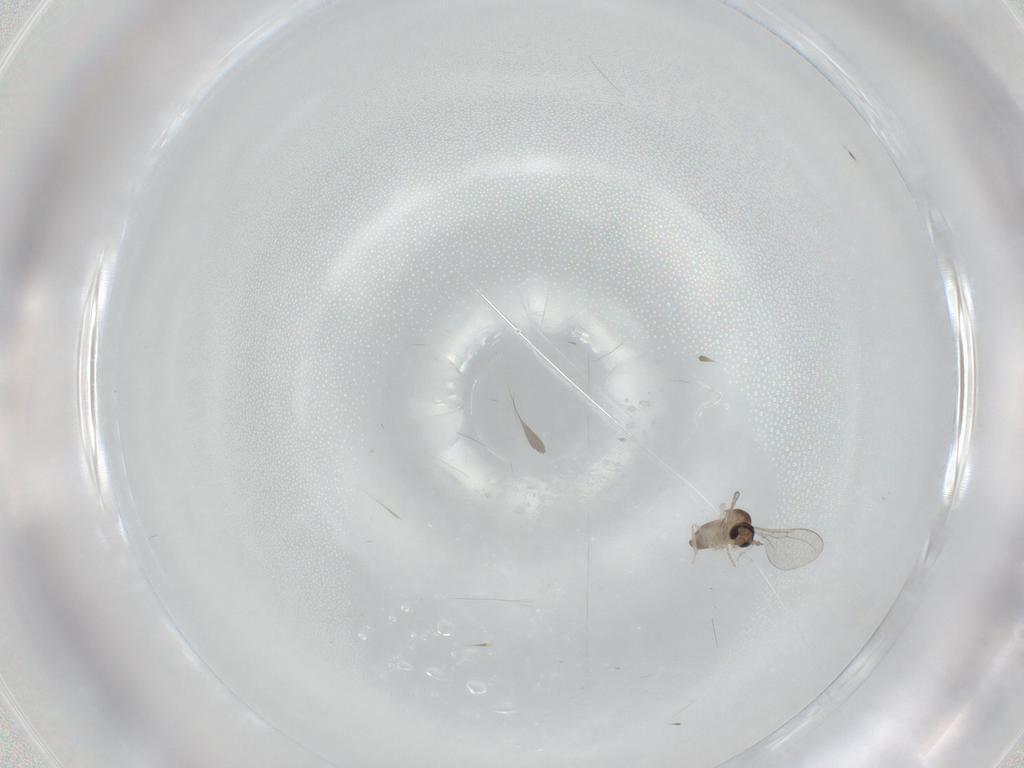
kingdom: Animalia
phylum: Arthropoda
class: Insecta
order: Diptera
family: Cecidomyiidae
